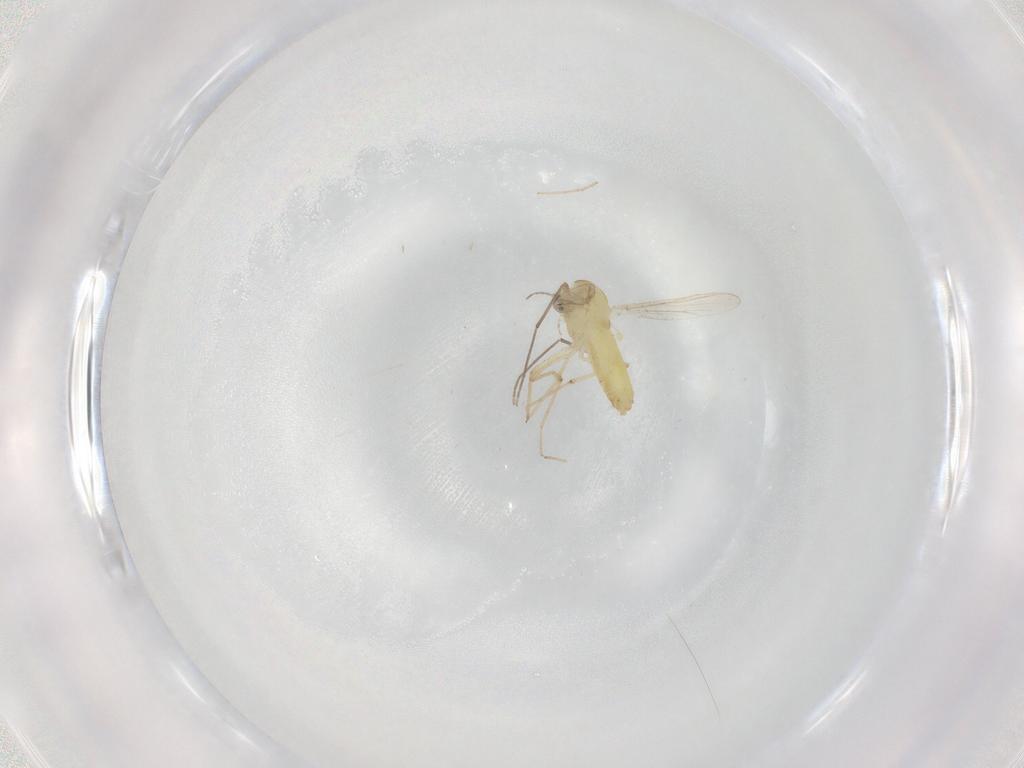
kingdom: Animalia
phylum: Arthropoda
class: Insecta
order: Diptera
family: Chironomidae
